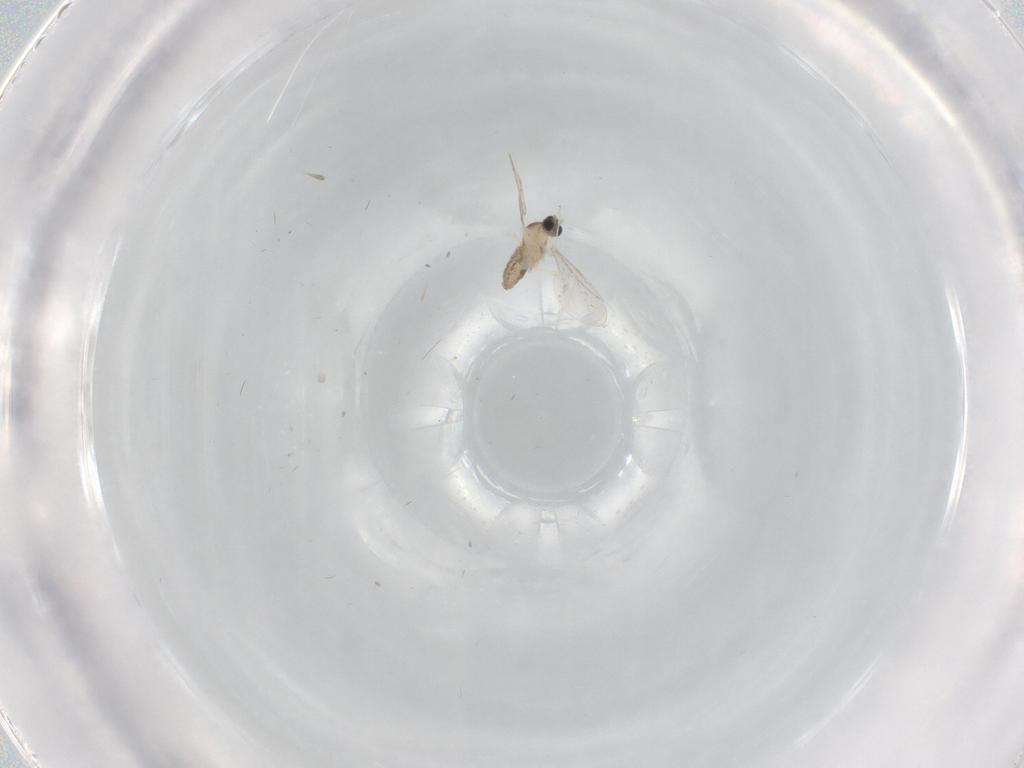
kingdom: Animalia
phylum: Arthropoda
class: Insecta
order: Diptera
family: Cecidomyiidae
